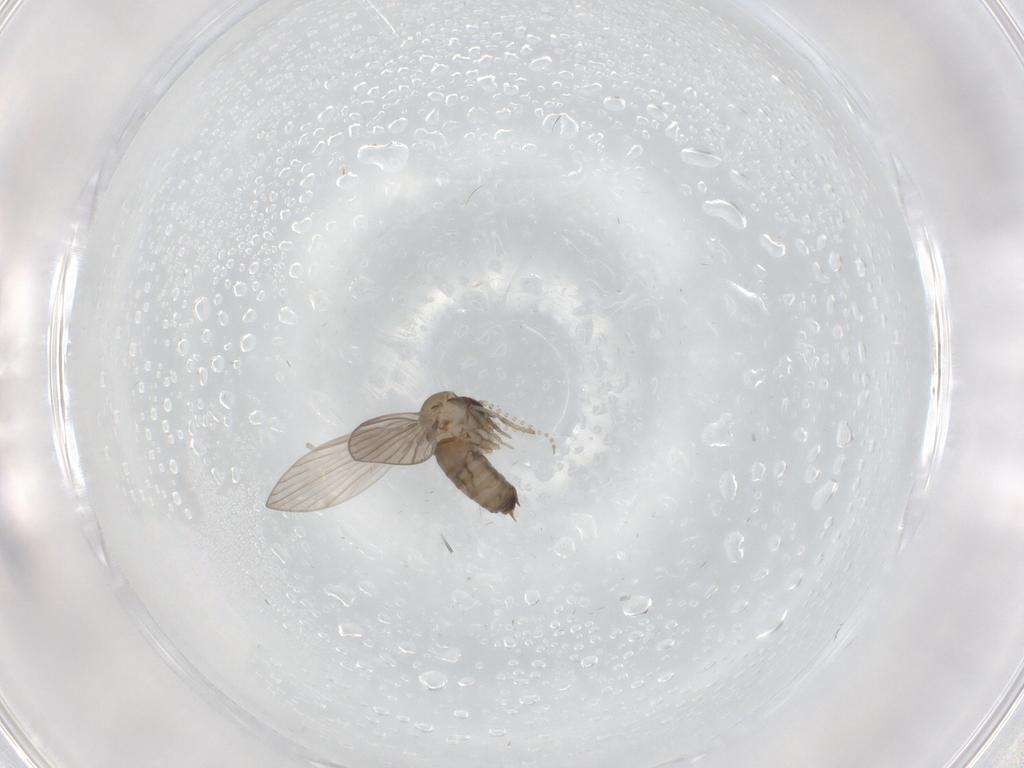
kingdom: Animalia
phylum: Arthropoda
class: Insecta
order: Diptera
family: Psychodidae
